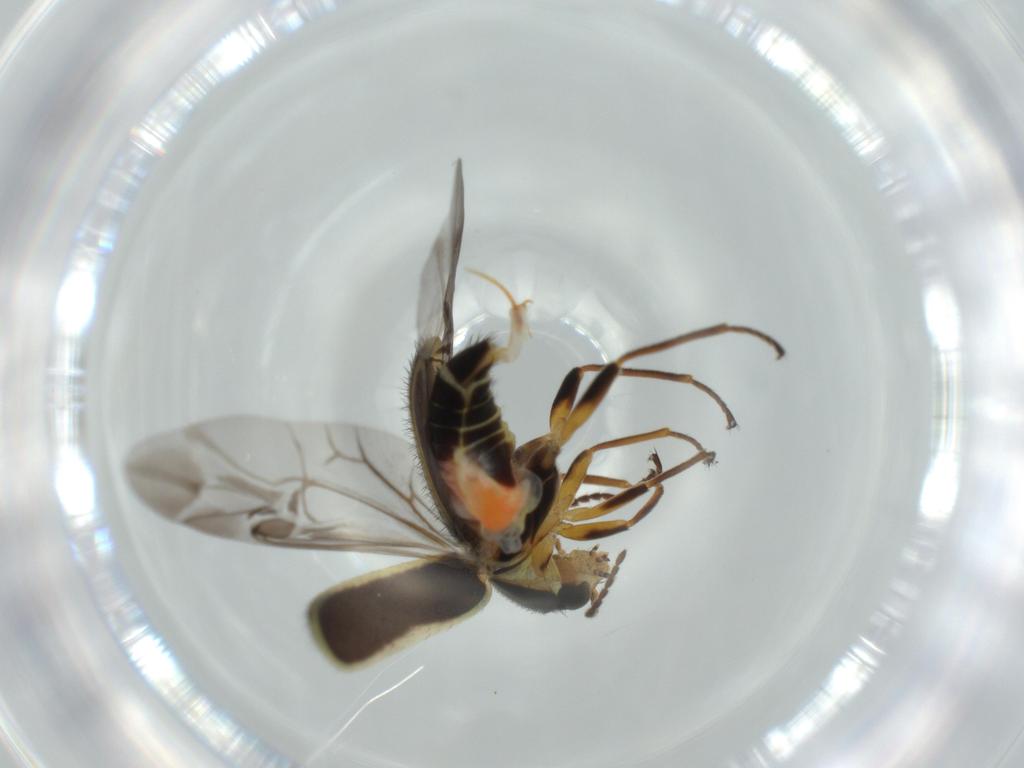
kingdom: Animalia
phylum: Arthropoda
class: Insecta
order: Coleoptera
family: Melyridae
